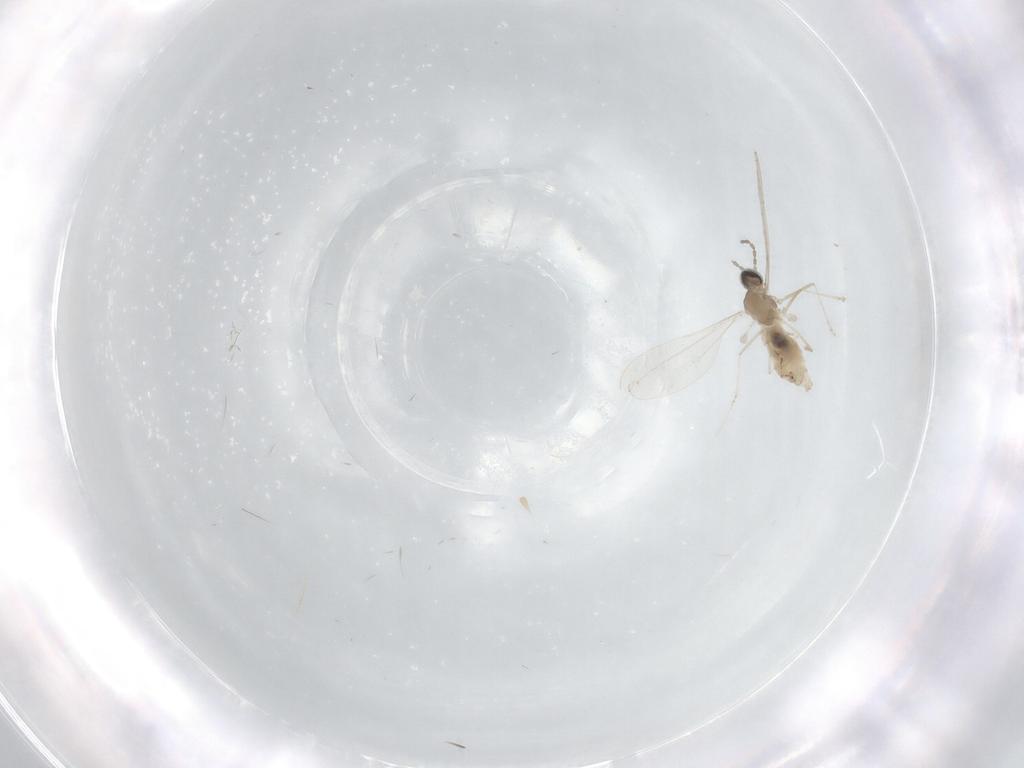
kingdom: Animalia
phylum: Arthropoda
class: Insecta
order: Diptera
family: Cecidomyiidae
